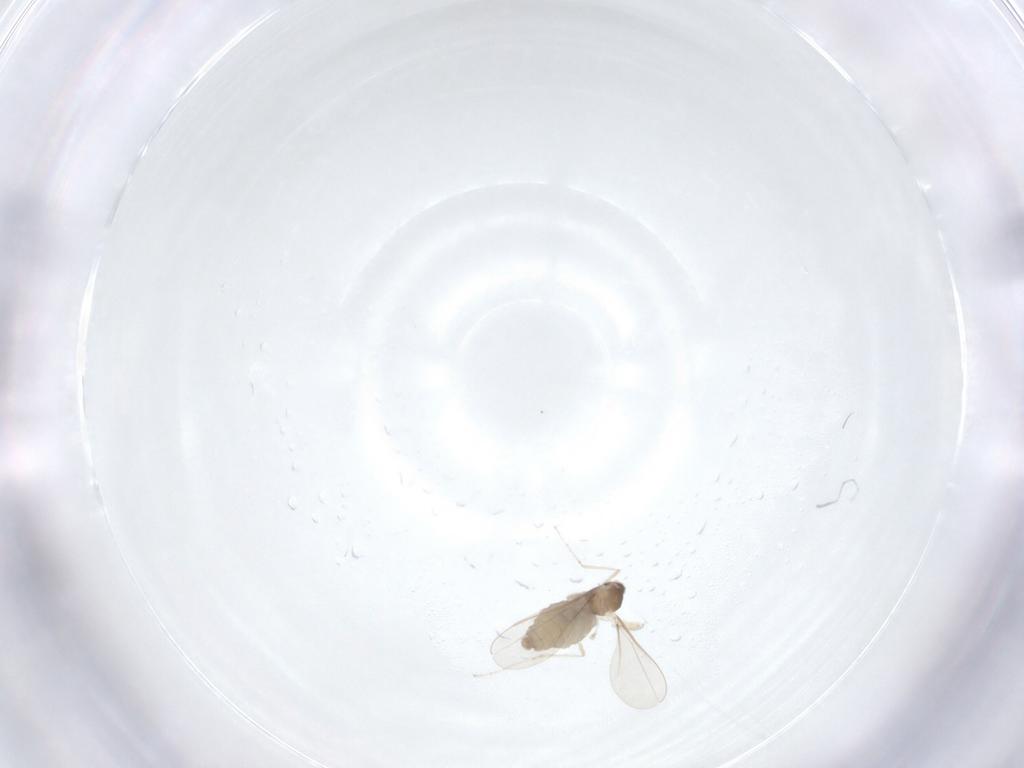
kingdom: Animalia
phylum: Arthropoda
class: Insecta
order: Diptera
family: Cecidomyiidae
